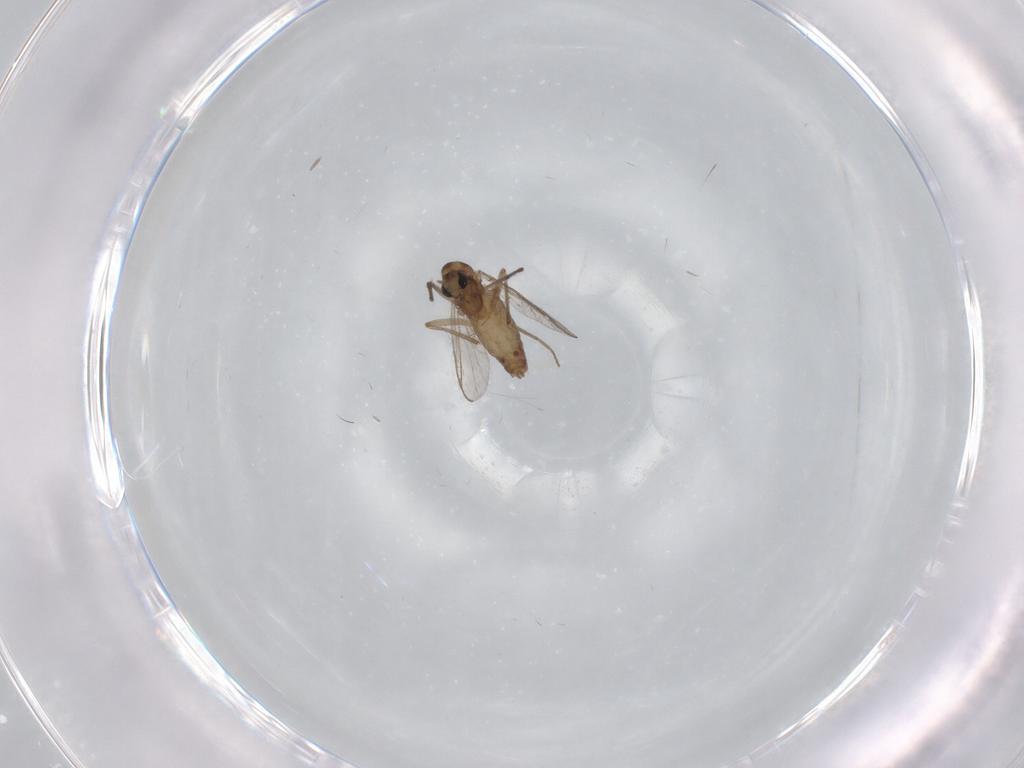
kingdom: Animalia
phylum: Arthropoda
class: Insecta
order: Diptera
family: Chironomidae
